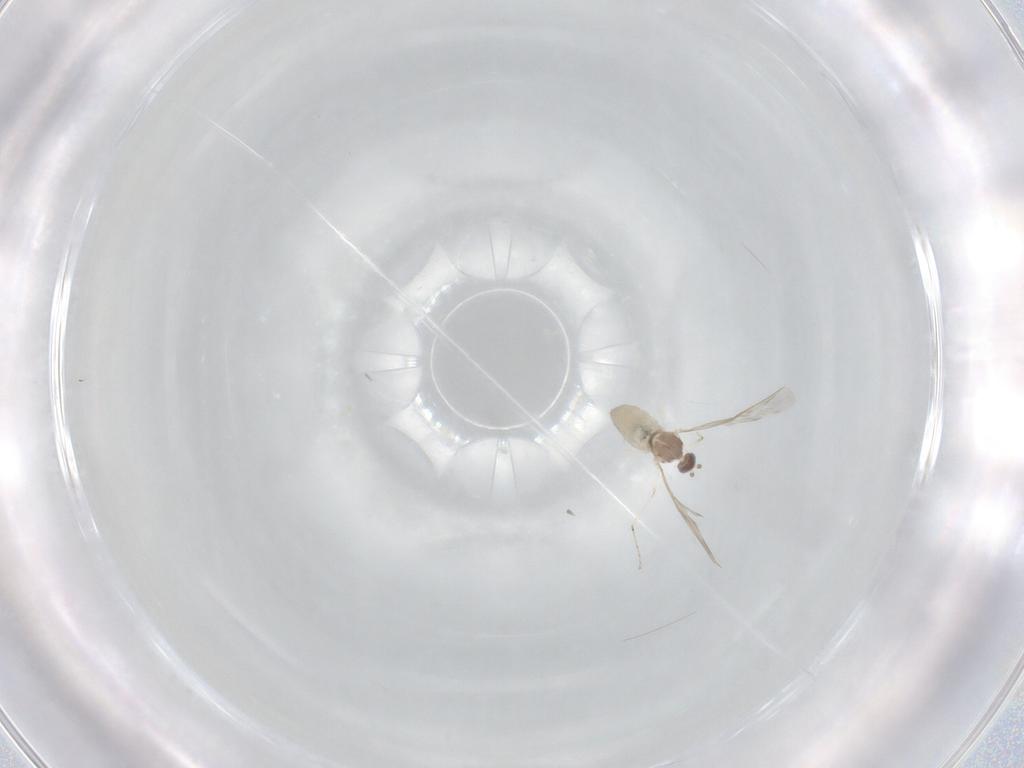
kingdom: Animalia
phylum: Arthropoda
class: Insecta
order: Diptera
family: Cecidomyiidae
